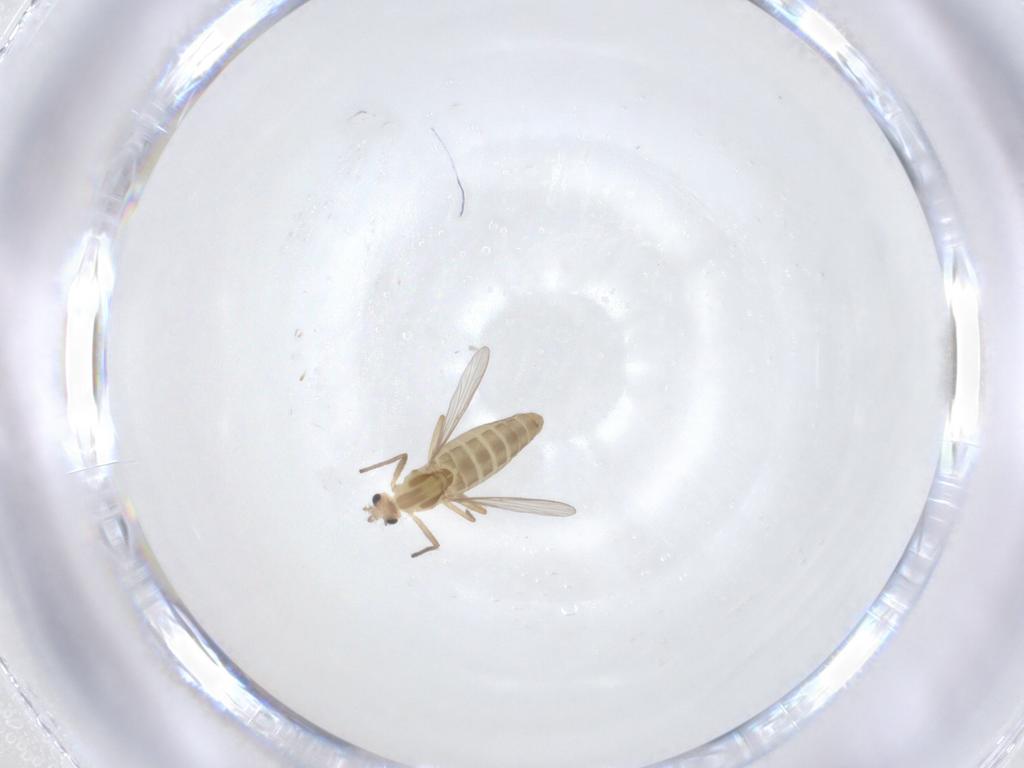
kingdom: Animalia
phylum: Arthropoda
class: Insecta
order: Diptera
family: Chironomidae
